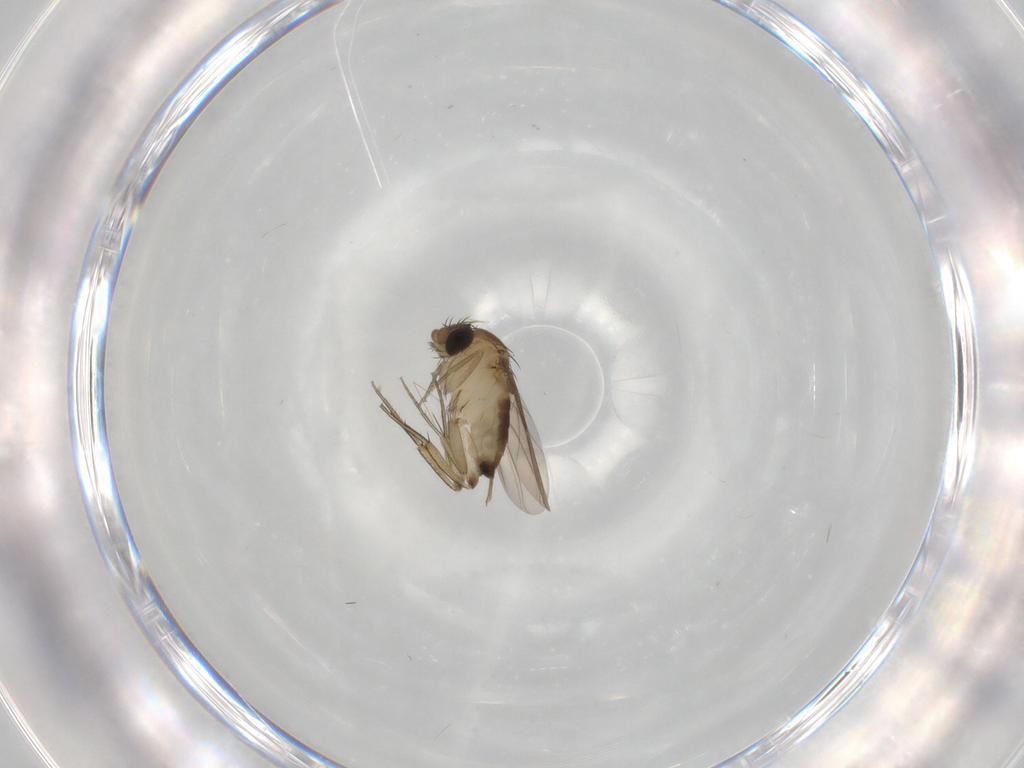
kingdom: Animalia
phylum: Arthropoda
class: Insecta
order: Diptera
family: Phoridae
